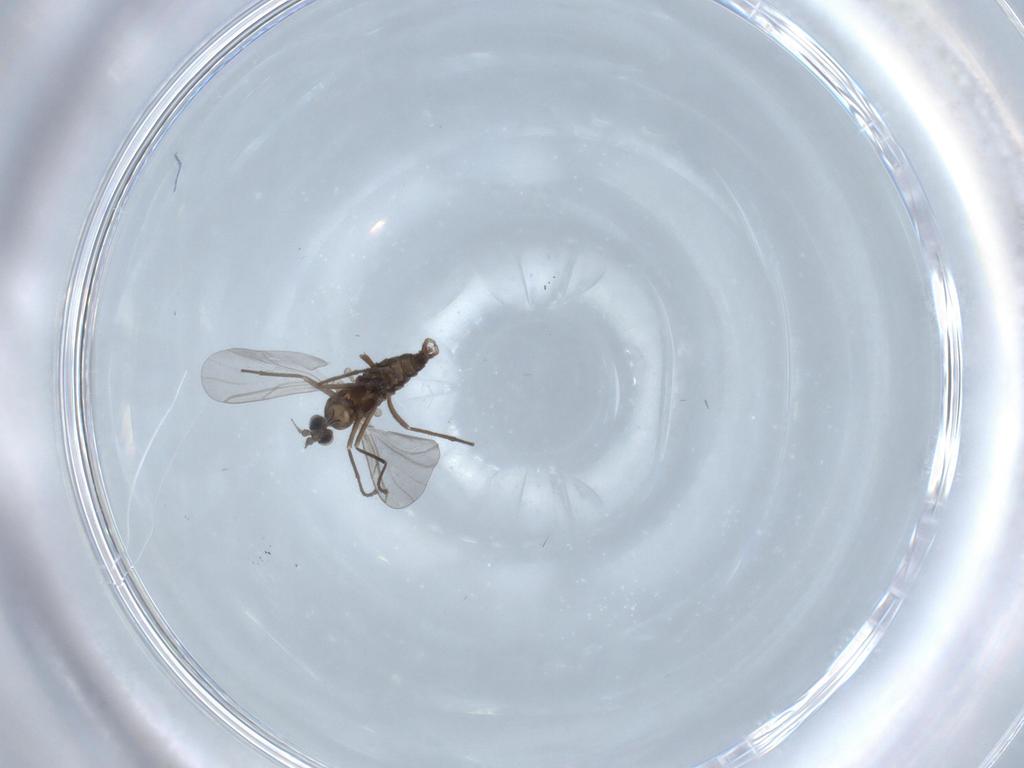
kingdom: Animalia
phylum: Arthropoda
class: Insecta
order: Diptera
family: Cecidomyiidae
